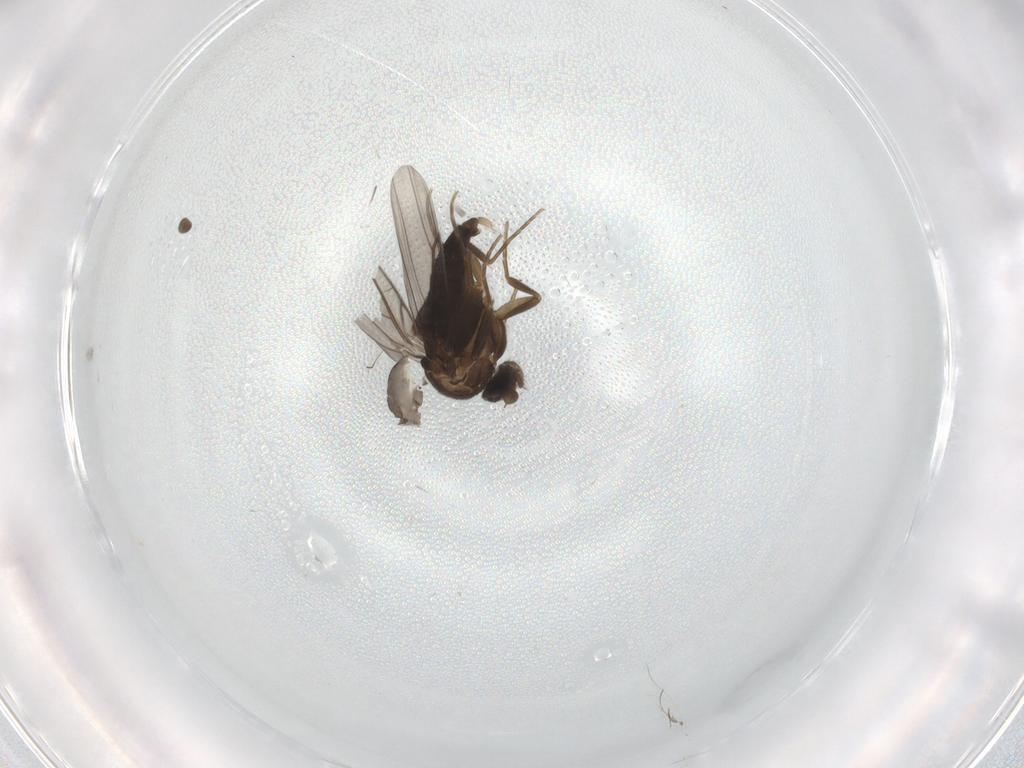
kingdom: Animalia
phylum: Arthropoda
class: Insecta
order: Diptera
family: Psychodidae
